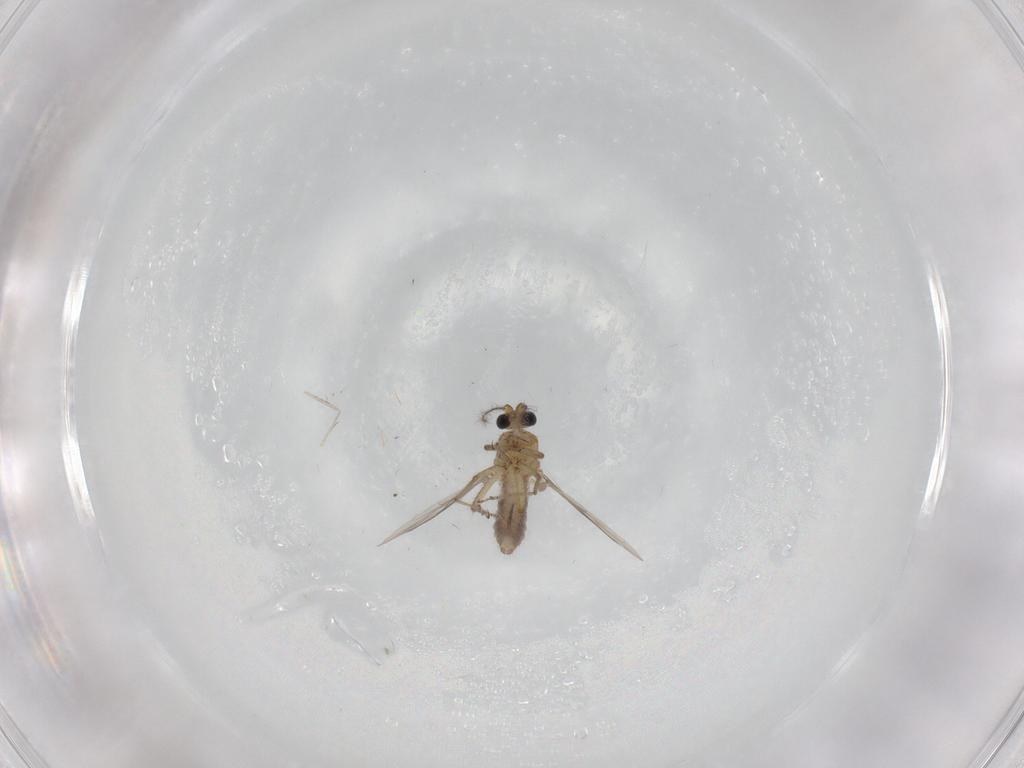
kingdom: Animalia
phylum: Arthropoda
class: Insecta
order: Diptera
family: Ceratopogonidae
